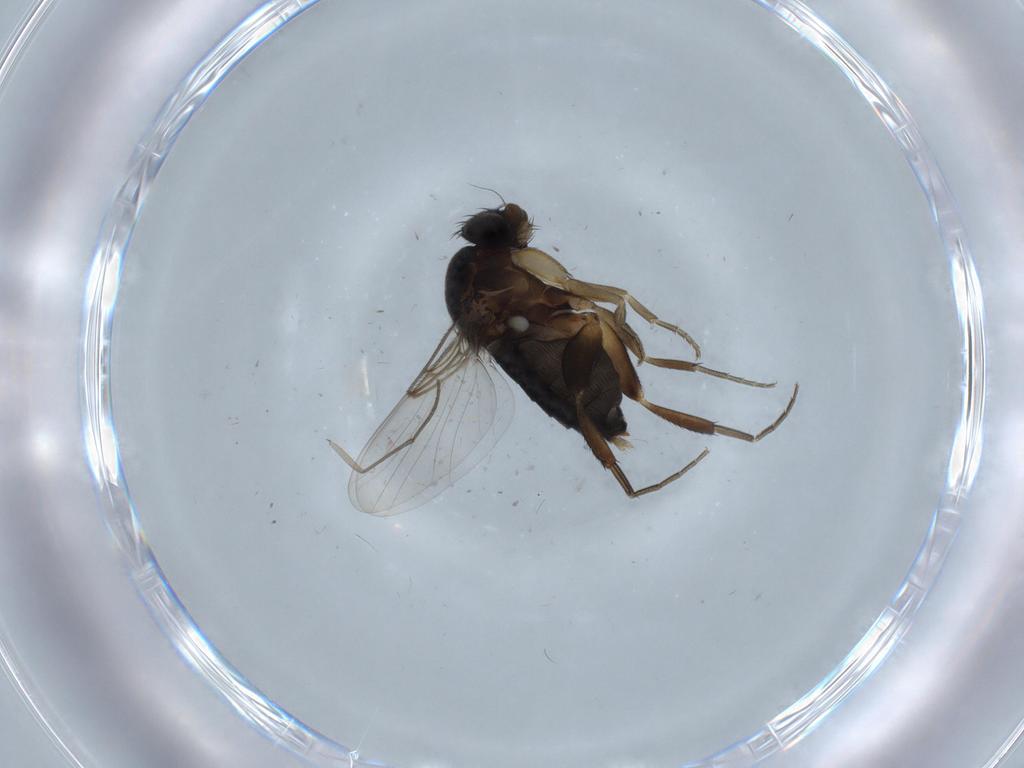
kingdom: Animalia
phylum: Arthropoda
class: Insecta
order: Diptera
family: Phoridae
